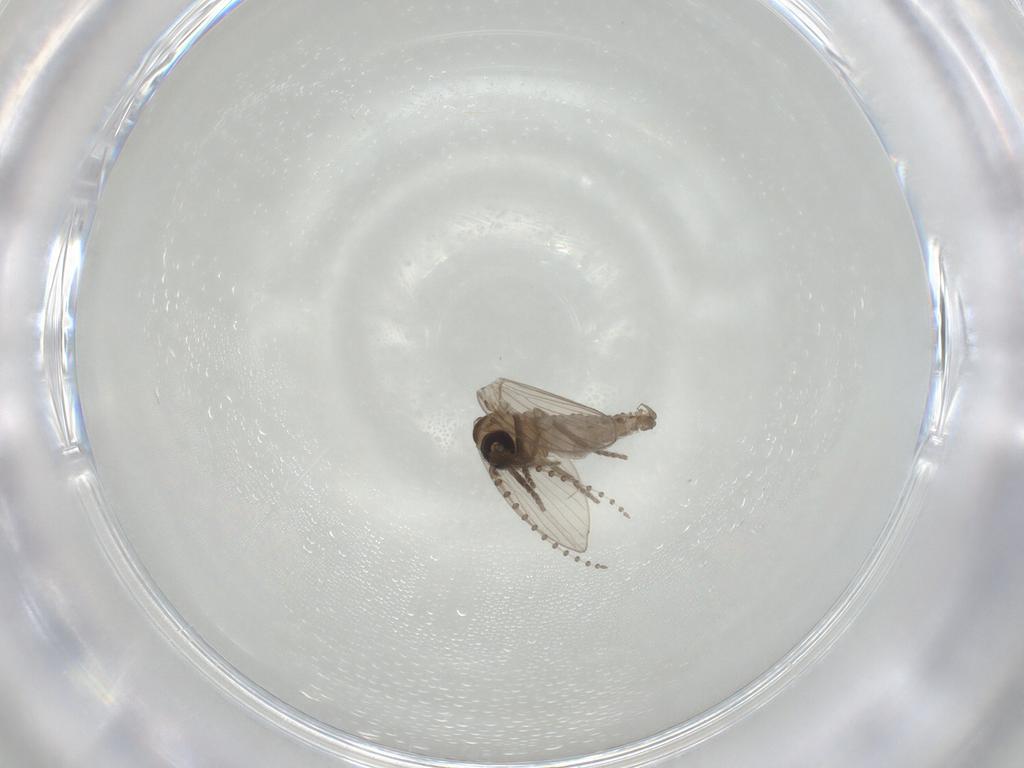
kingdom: Animalia
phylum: Arthropoda
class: Insecta
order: Diptera
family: Psychodidae
